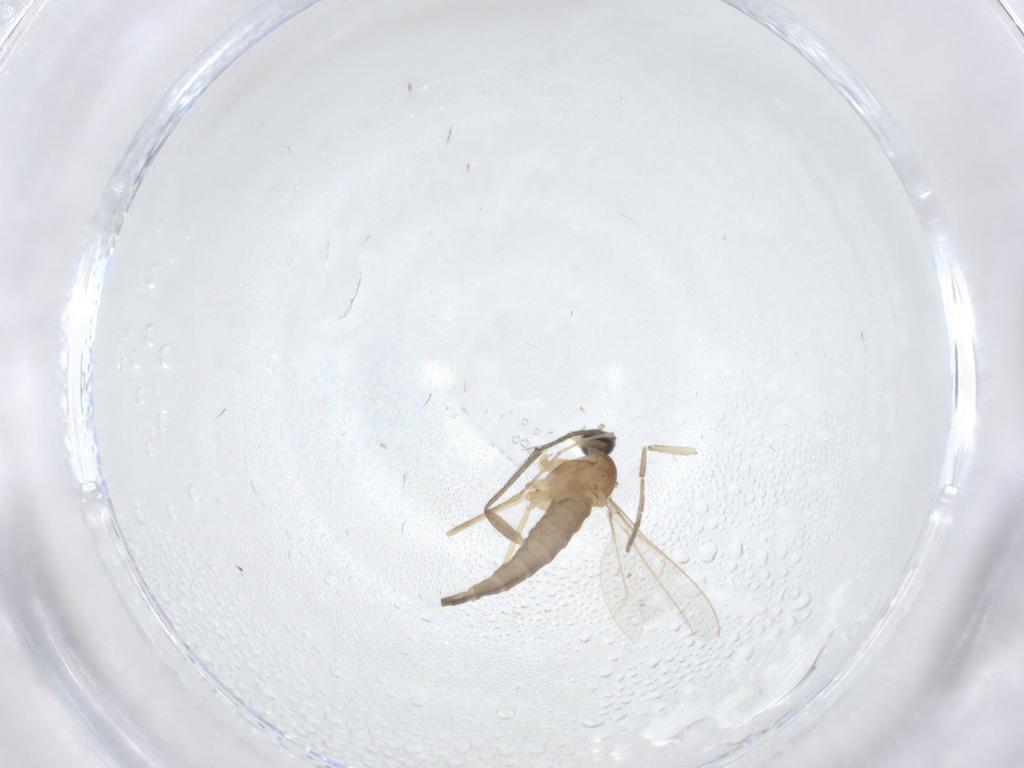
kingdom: Animalia
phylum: Arthropoda
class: Insecta
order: Diptera
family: Cecidomyiidae
